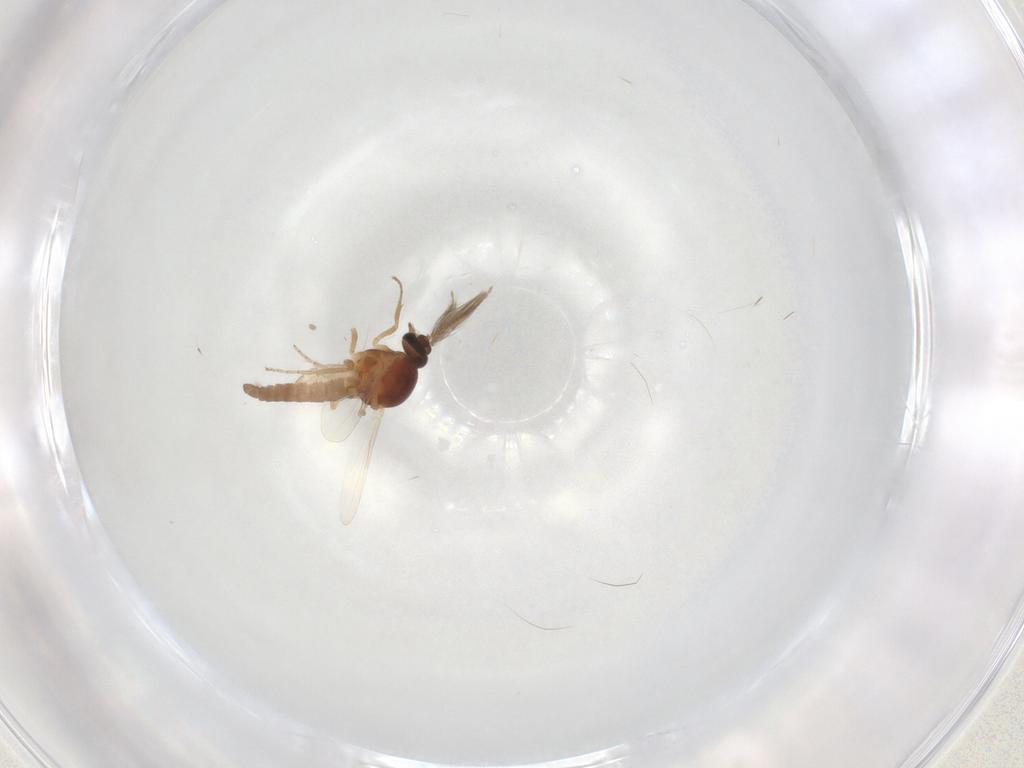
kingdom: Animalia
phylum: Arthropoda
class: Insecta
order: Diptera
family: Ceratopogonidae
